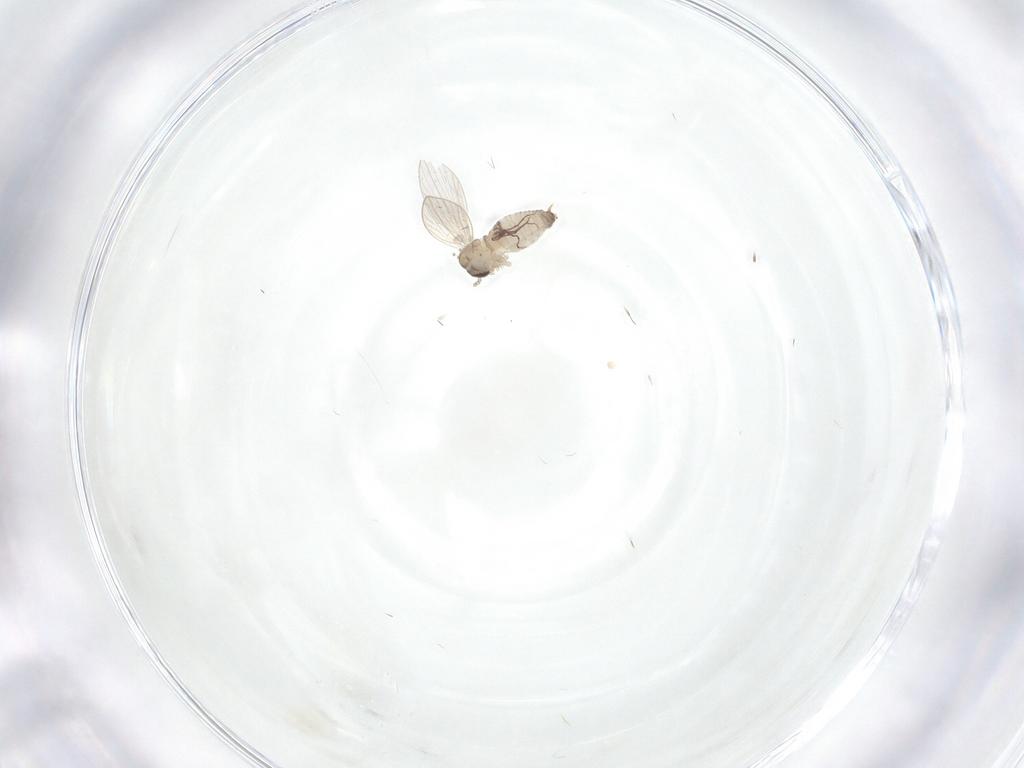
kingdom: Animalia
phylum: Arthropoda
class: Insecta
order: Diptera
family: Psychodidae
